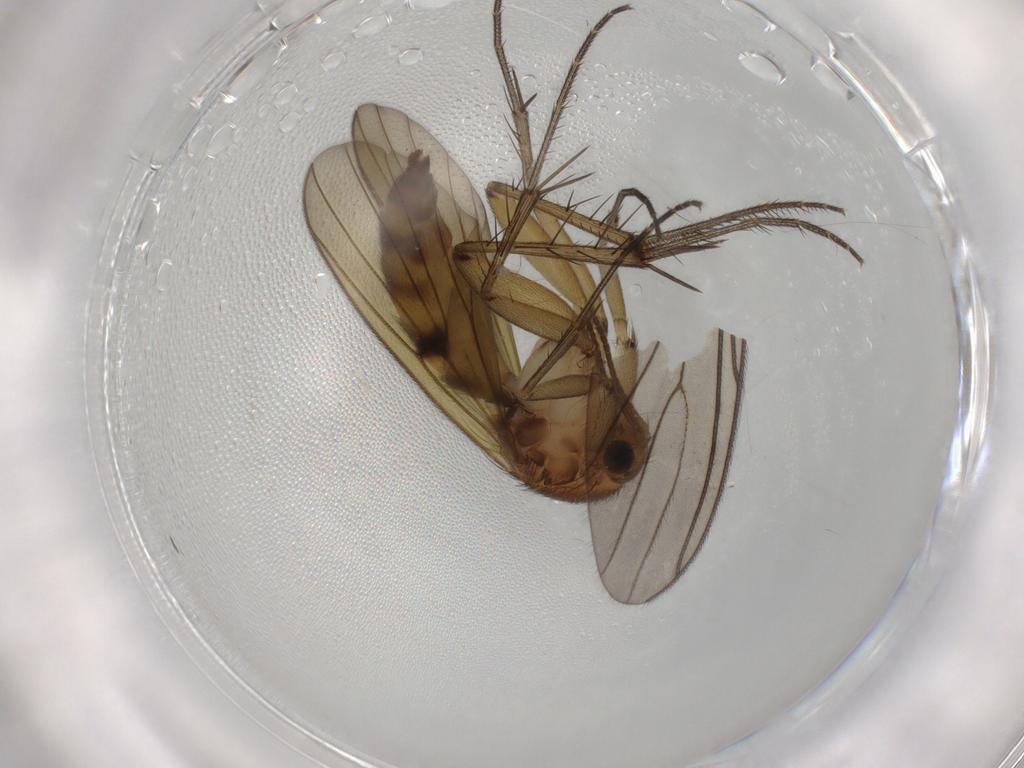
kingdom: Animalia
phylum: Arthropoda
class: Insecta
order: Diptera
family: Mycetophilidae
